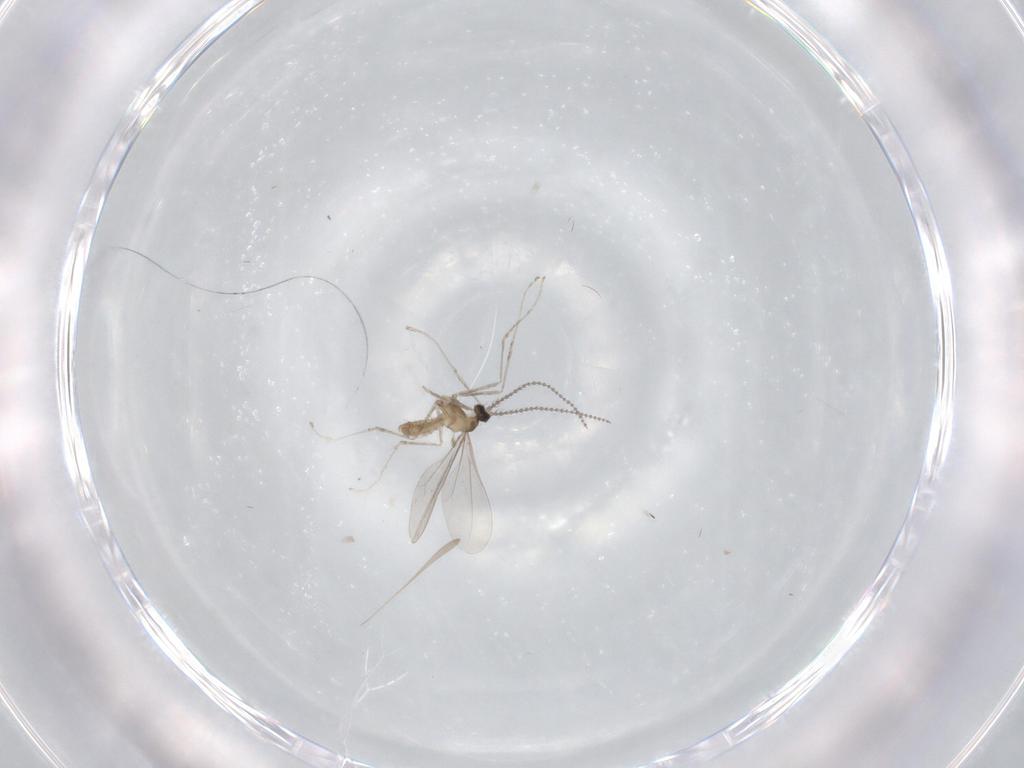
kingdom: Animalia
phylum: Arthropoda
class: Insecta
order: Diptera
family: Cecidomyiidae
